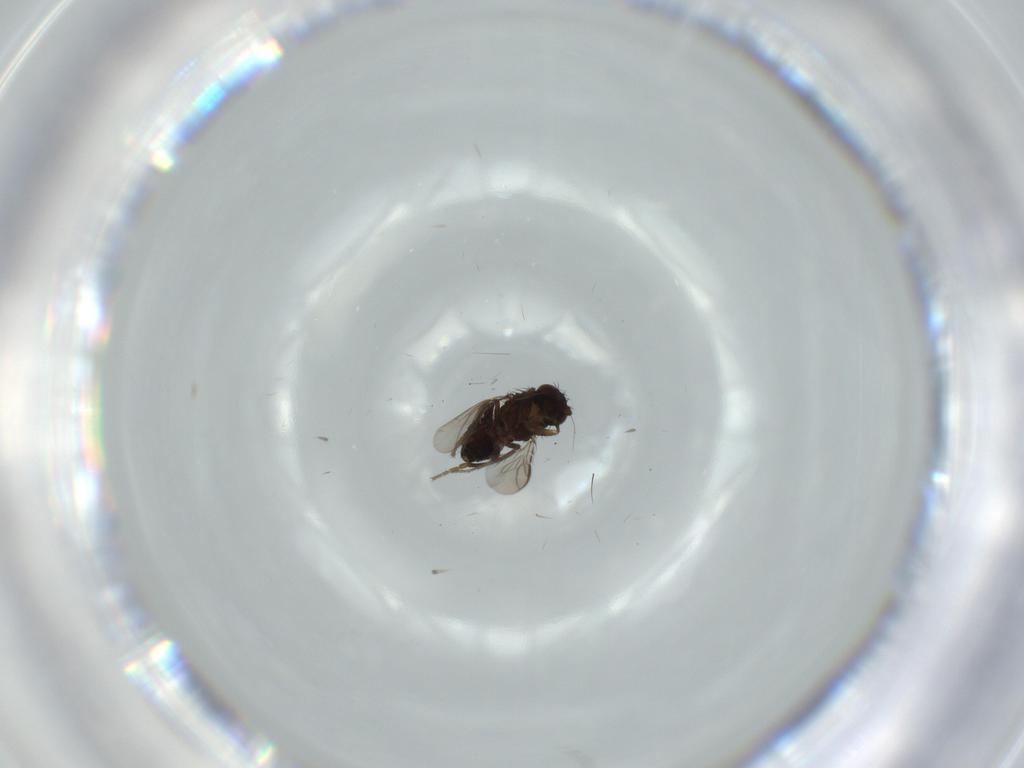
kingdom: Animalia
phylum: Arthropoda
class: Insecta
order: Diptera
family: Sphaeroceridae
